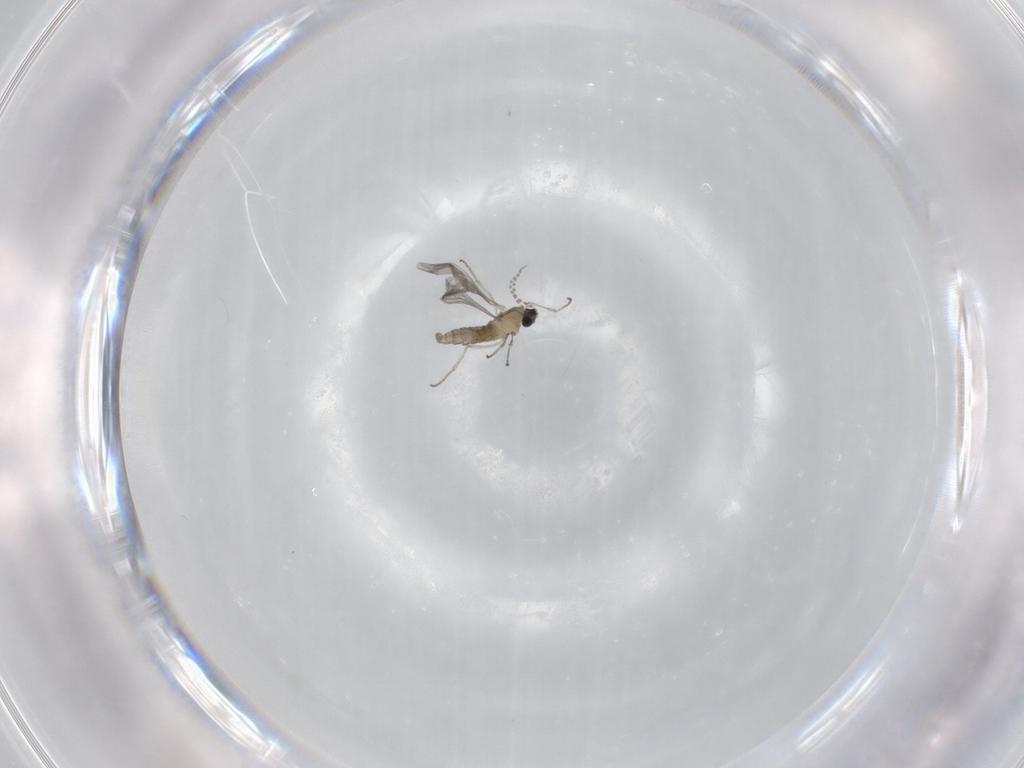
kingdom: Animalia
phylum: Arthropoda
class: Insecta
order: Diptera
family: Cecidomyiidae
